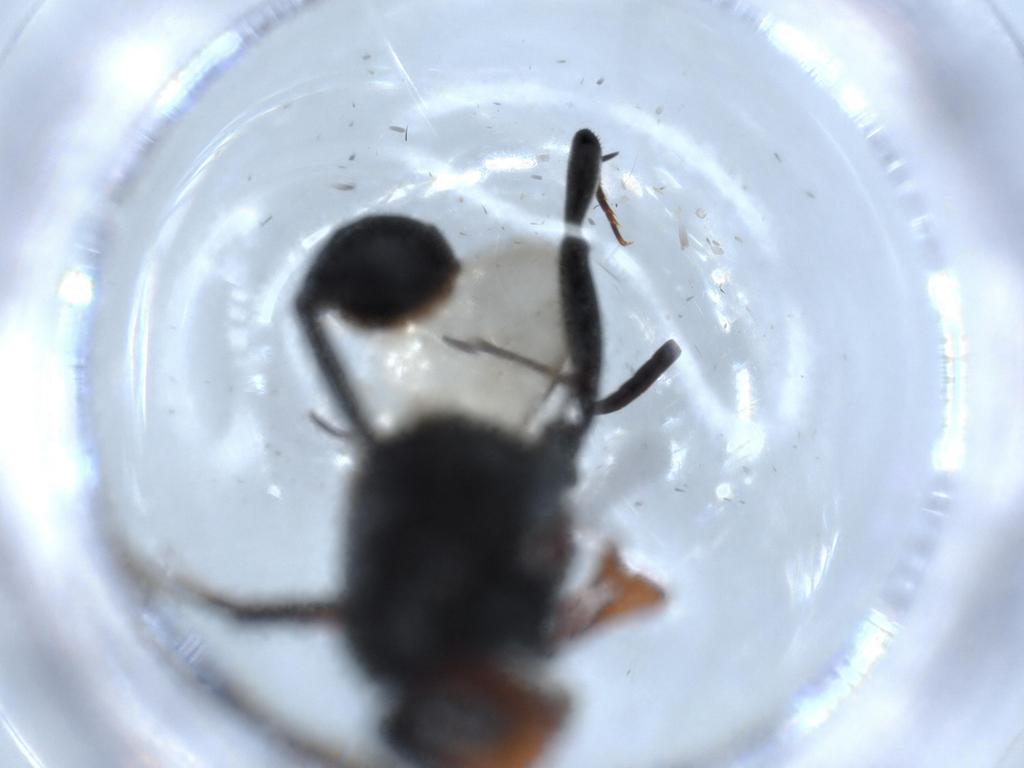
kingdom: Animalia
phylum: Arthropoda
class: Insecta
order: Hymenoptera
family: Evaniidae
